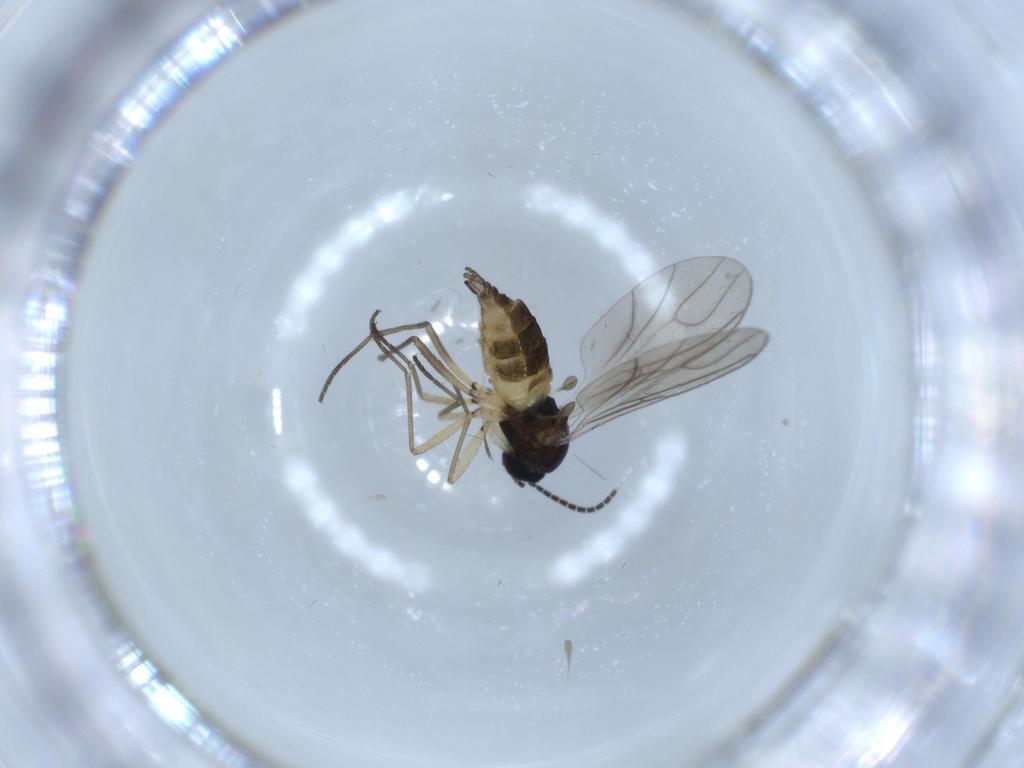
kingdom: Animalia
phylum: Arthropoda
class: Insecta
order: Diptera
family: Sciaridae
